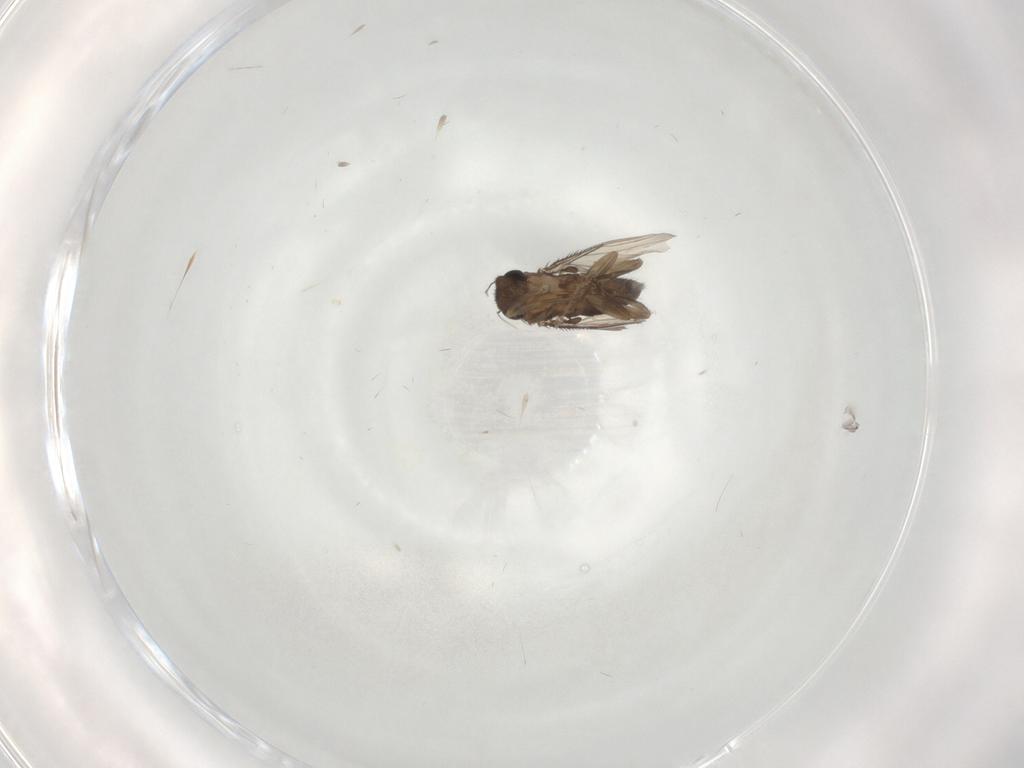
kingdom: Animalia
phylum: Arthropoda
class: Insecta
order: Diptera
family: Phoridae
